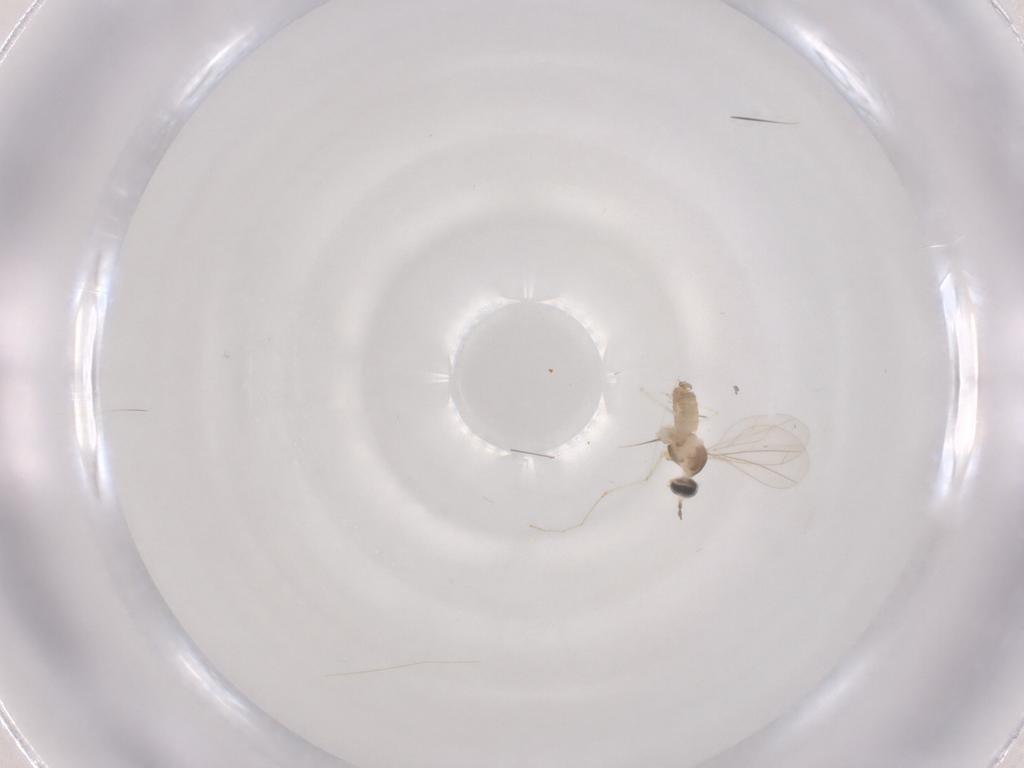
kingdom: Animalia
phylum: Arthropoda
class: Insecta
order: Diptera
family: Cecidomyiidae
